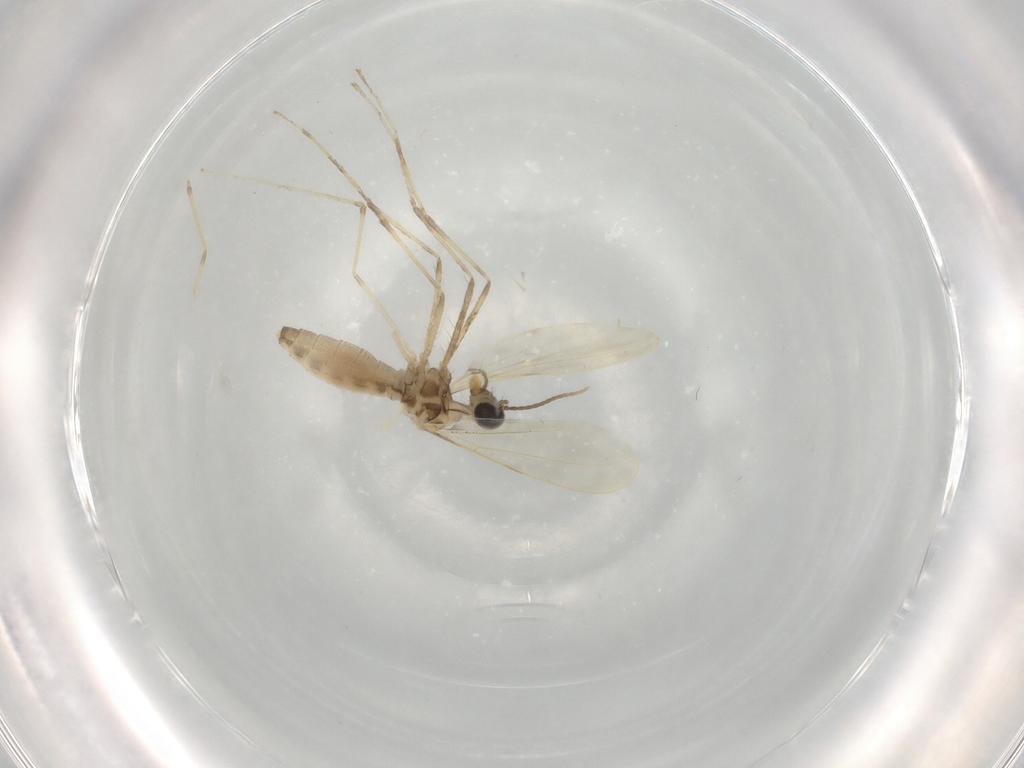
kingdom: Animalia
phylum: Arthropoda
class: Insecta
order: Diptera
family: Cecidomyiidae
